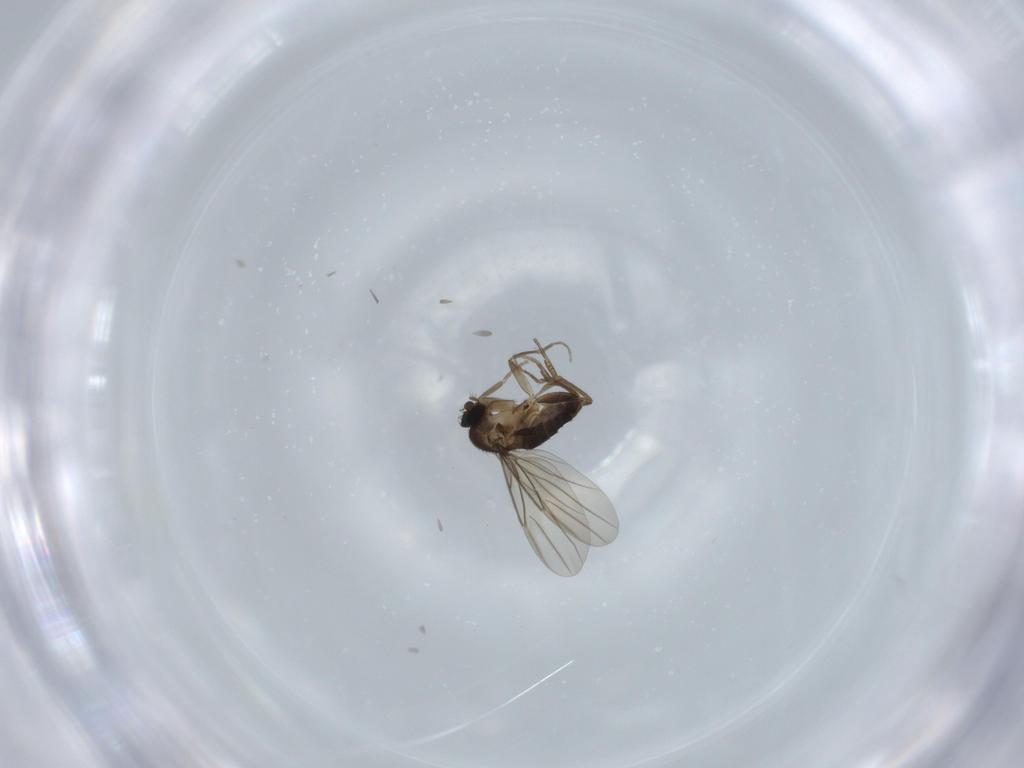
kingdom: Animalia
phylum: Arthropoda
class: Insecta
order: Diptera
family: Phoridae
